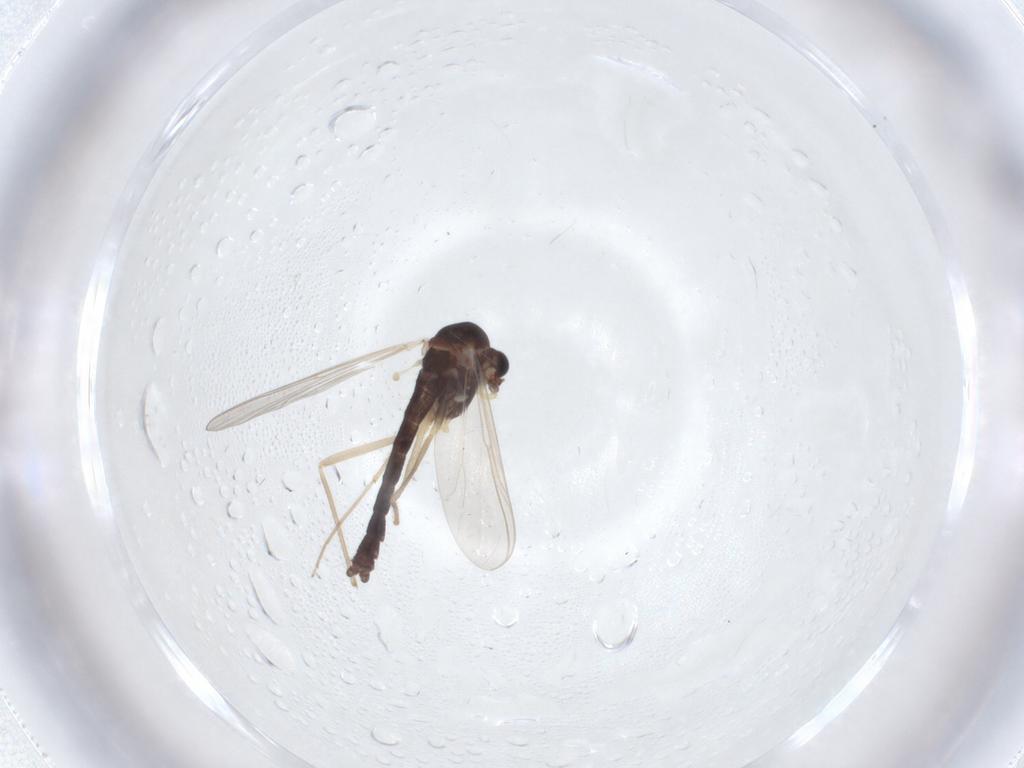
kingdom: Animalia
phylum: Arthropoda
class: Insecta
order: Diptera
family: Chironomidae
